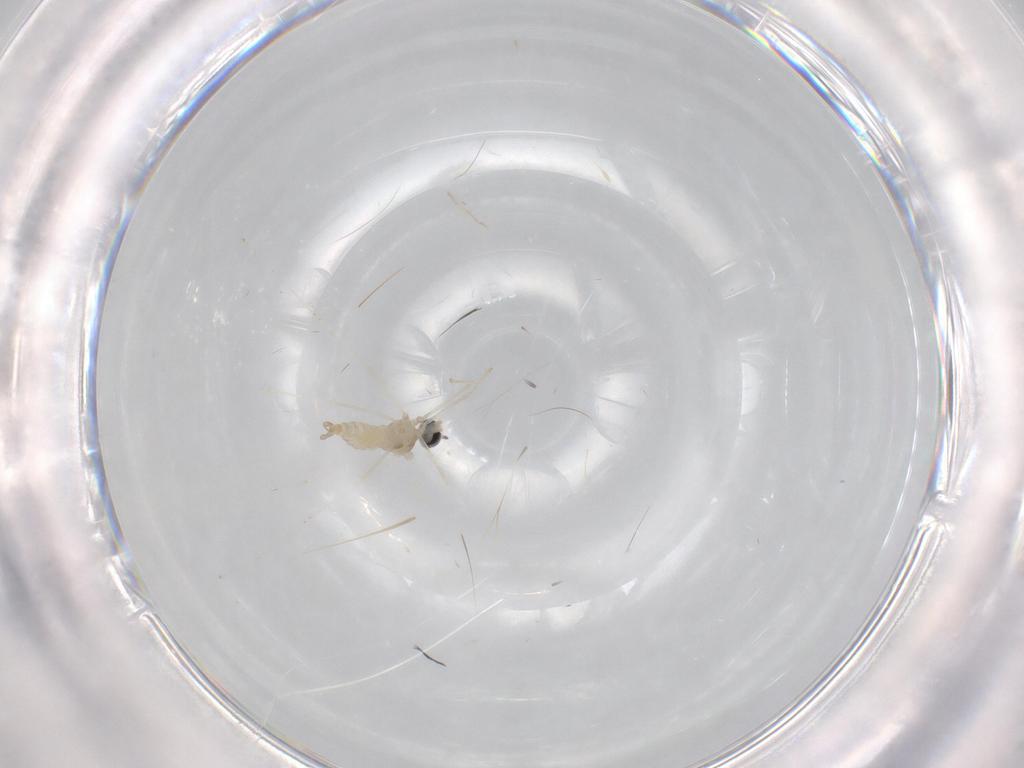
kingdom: Animalia
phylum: Arthropoda
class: Insecta
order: Diptera
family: Cecidomyiidae
